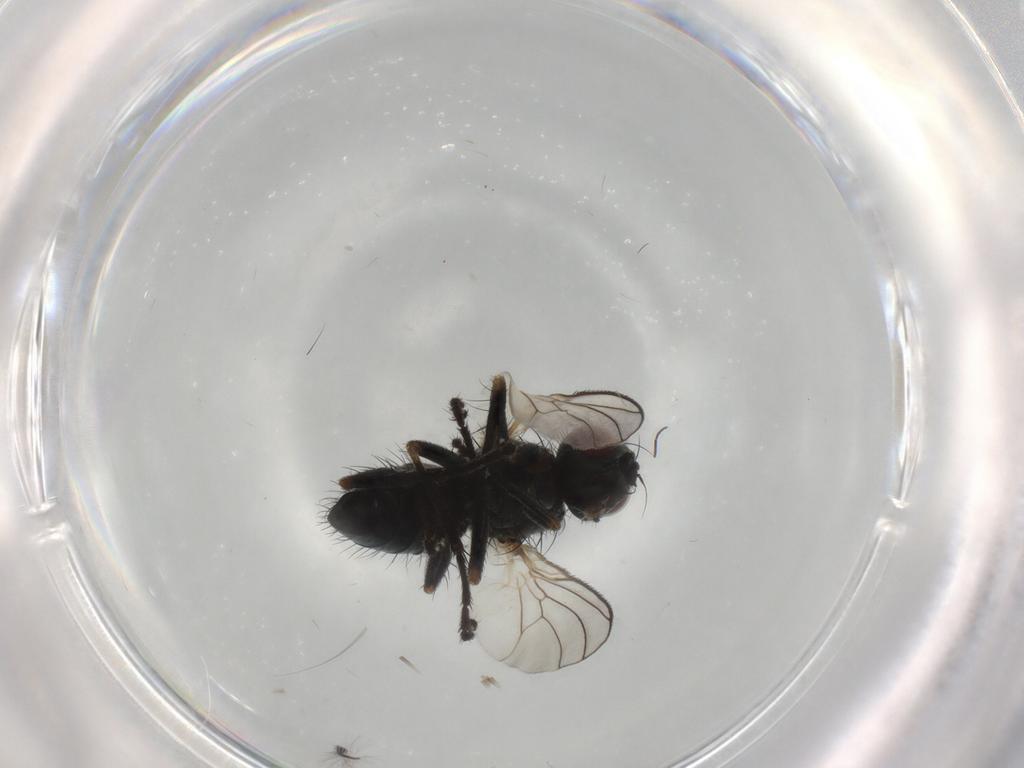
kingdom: Animalia
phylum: Arthropoda
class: Insecta
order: Diptera
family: Muscidae
